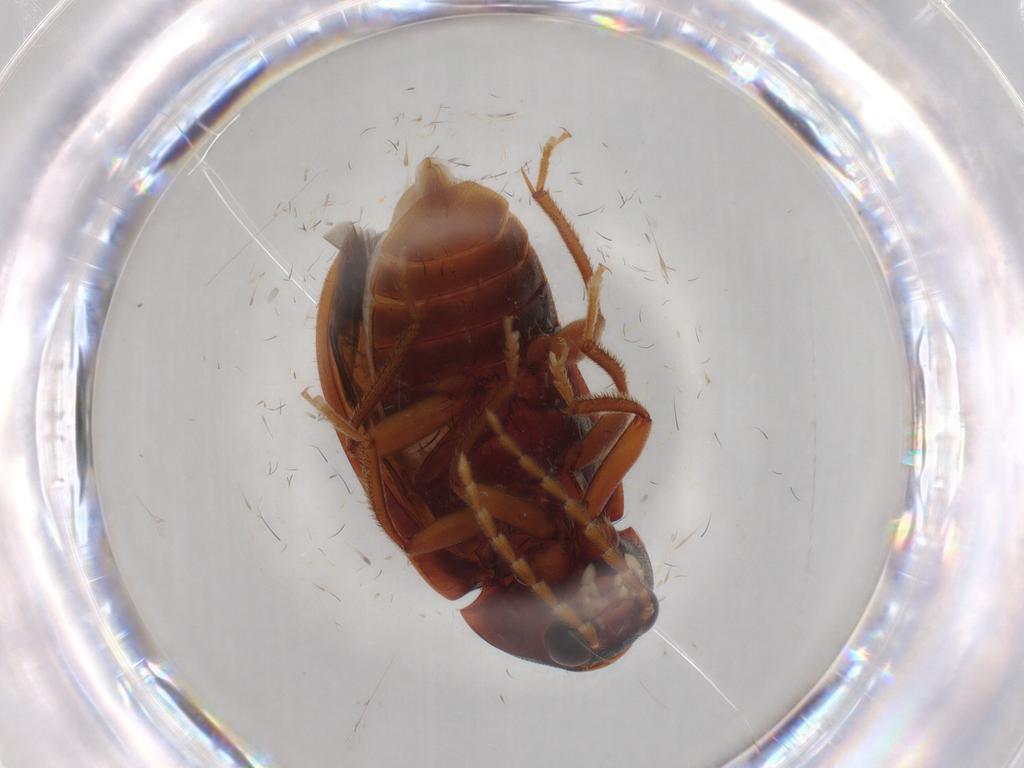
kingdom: Animalia
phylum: Arthropoda
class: Insecta
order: Coleoptera
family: Ptilodactylidae
